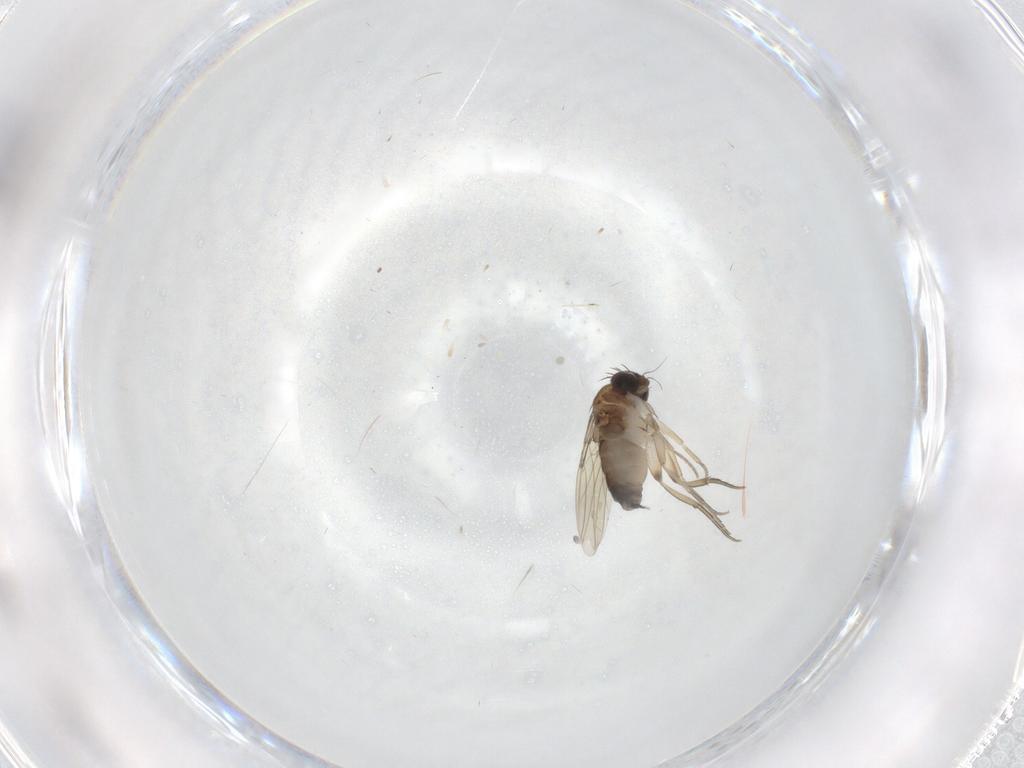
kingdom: Animalia
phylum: Arthropoda
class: Insecta
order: Diptera
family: Phoridae
